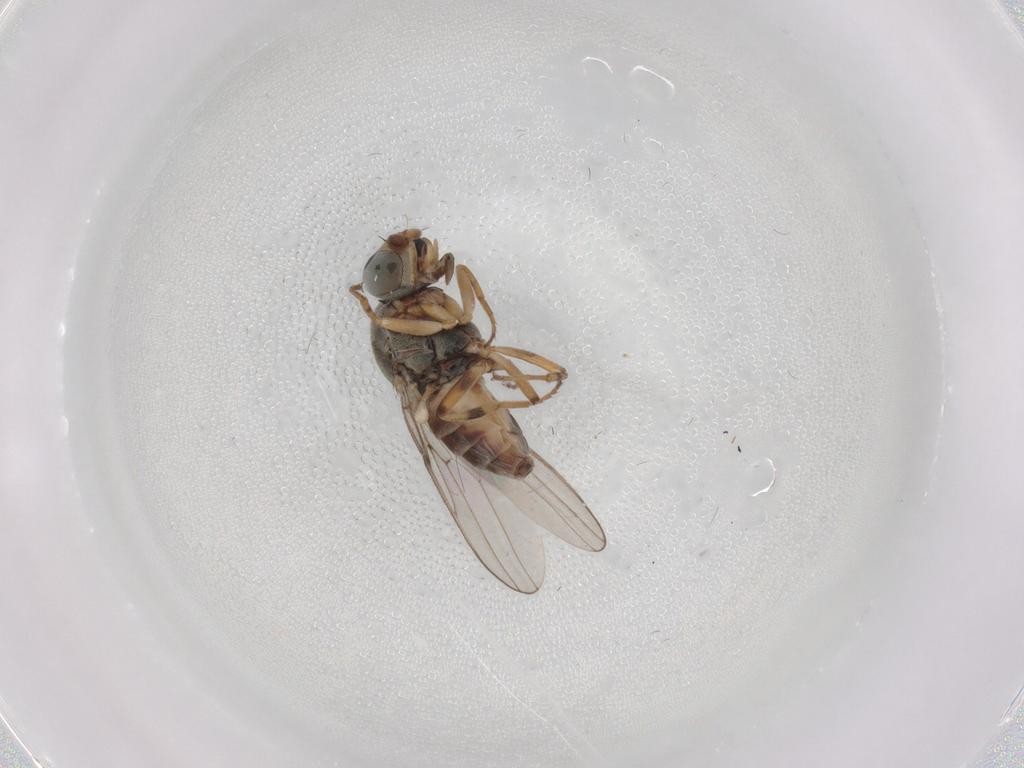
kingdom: Animalia
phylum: Arthropoda
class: Insecta
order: Diptera
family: Chloropidae
